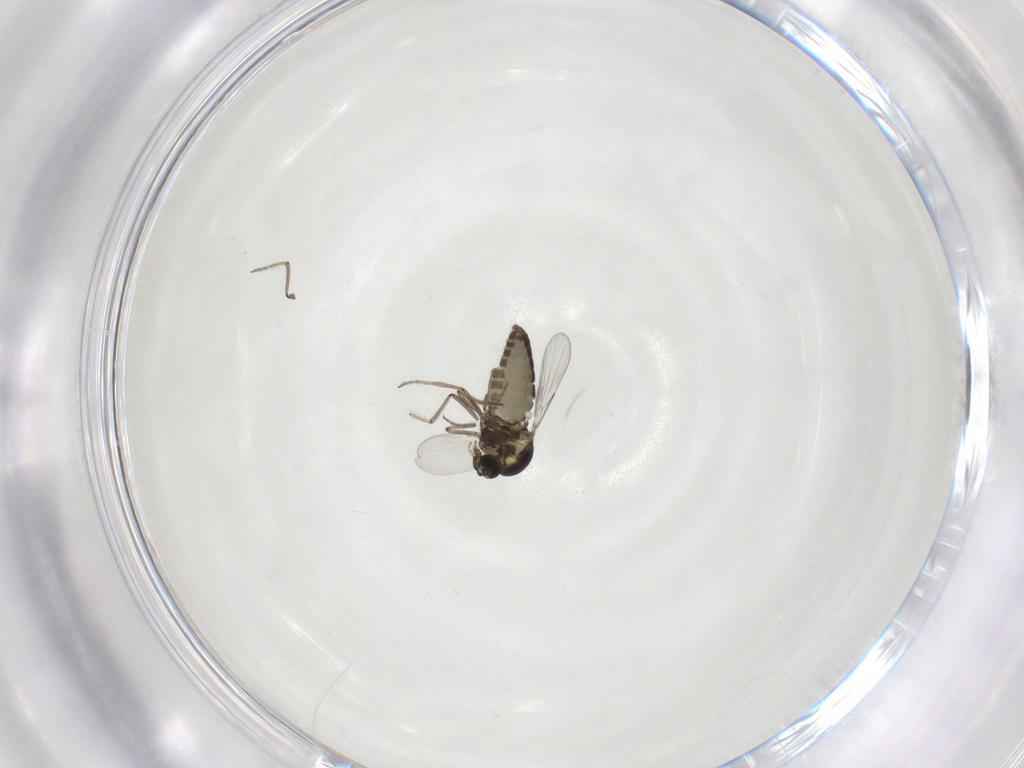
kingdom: Animalia
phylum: Arthropoda
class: Insecta
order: Diptera
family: Ceratopogonidae
